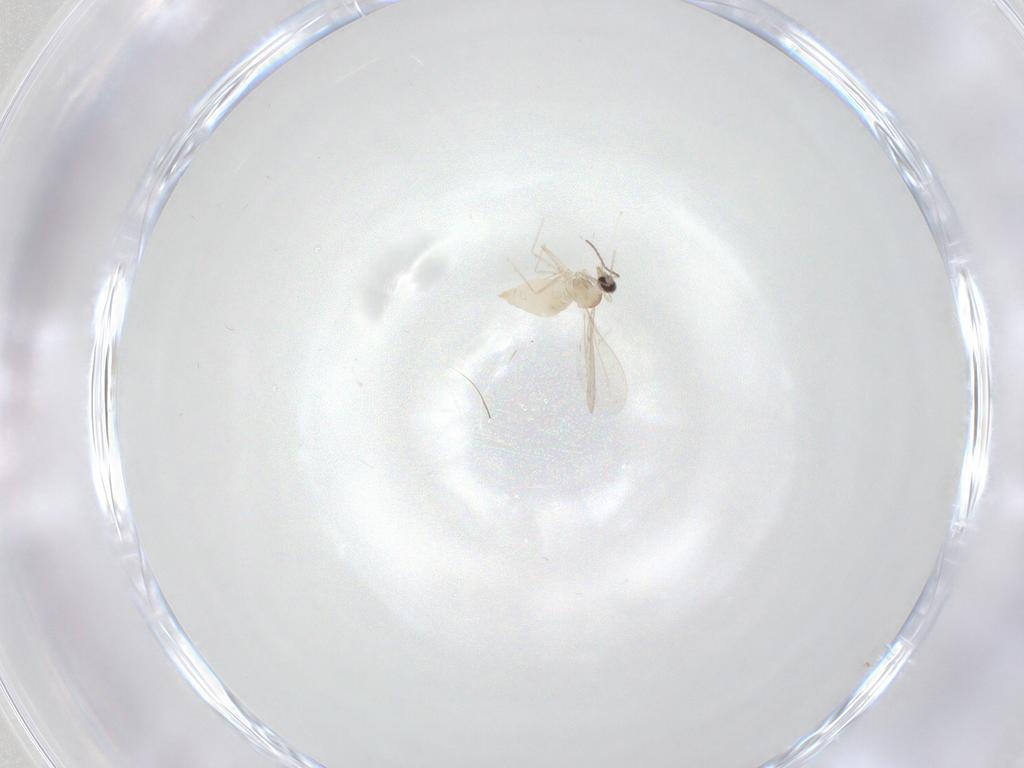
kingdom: Animalia
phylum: Arthropoda
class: Insecta
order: Diptera
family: Cecidomyiidae
